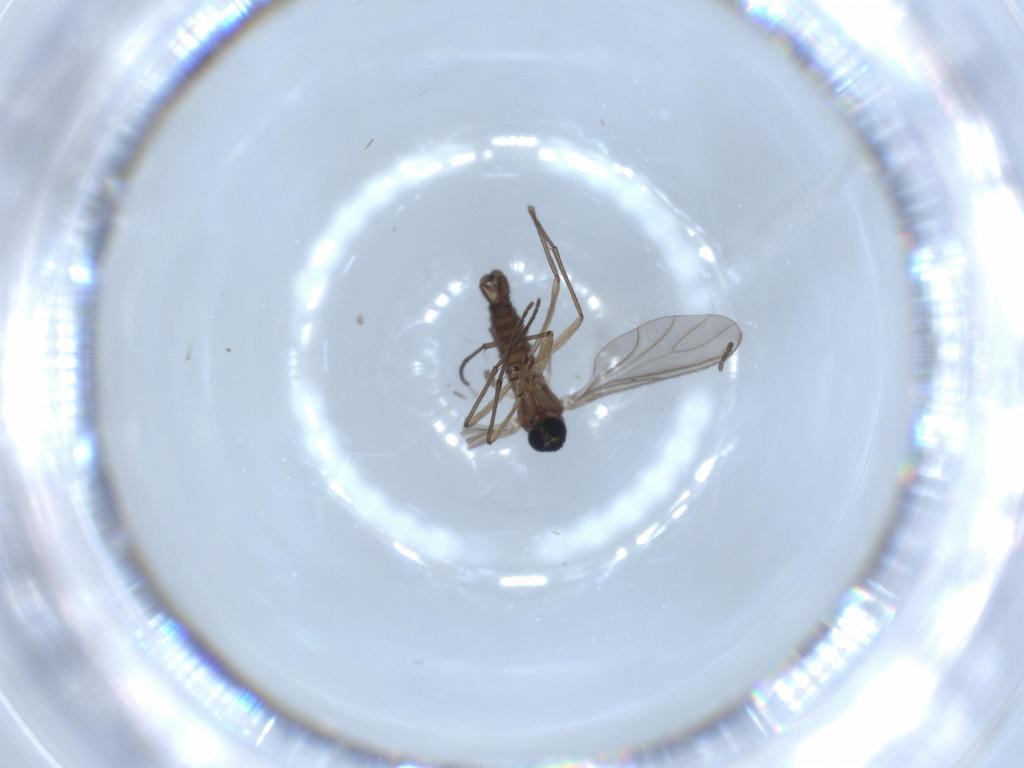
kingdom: Animalia
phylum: Arthropoda
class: Insecta
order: Diptera
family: Sciaridae
